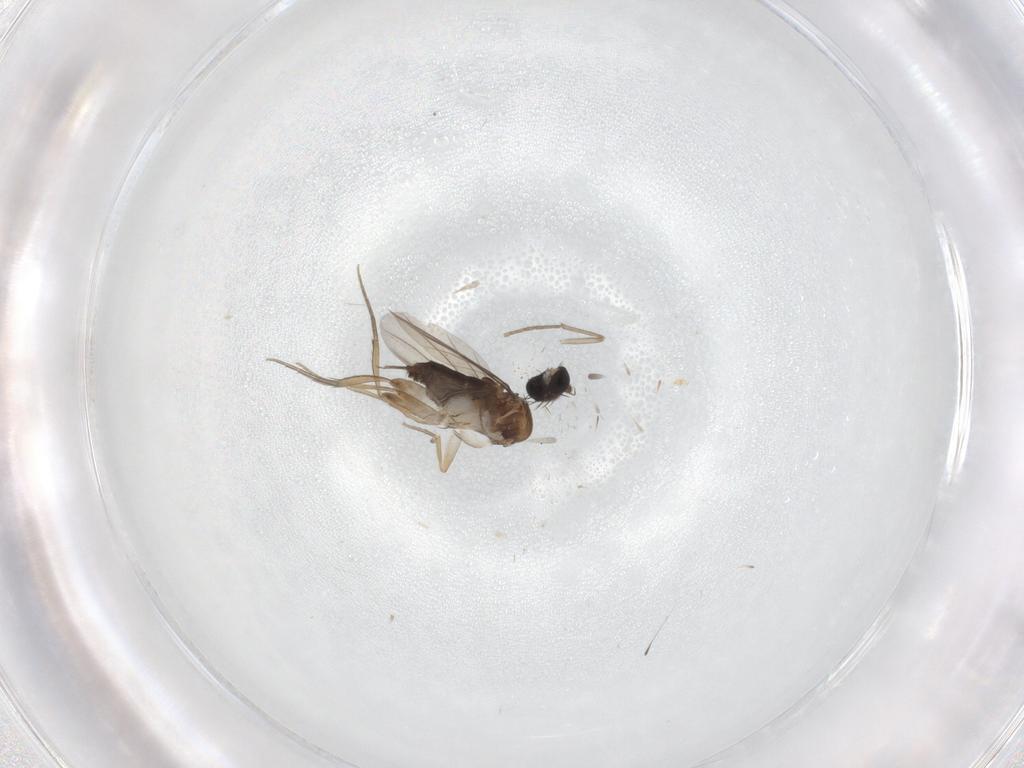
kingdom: Animalia
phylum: Arthropoda
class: Insecta
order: Diptera
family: Phoridae
